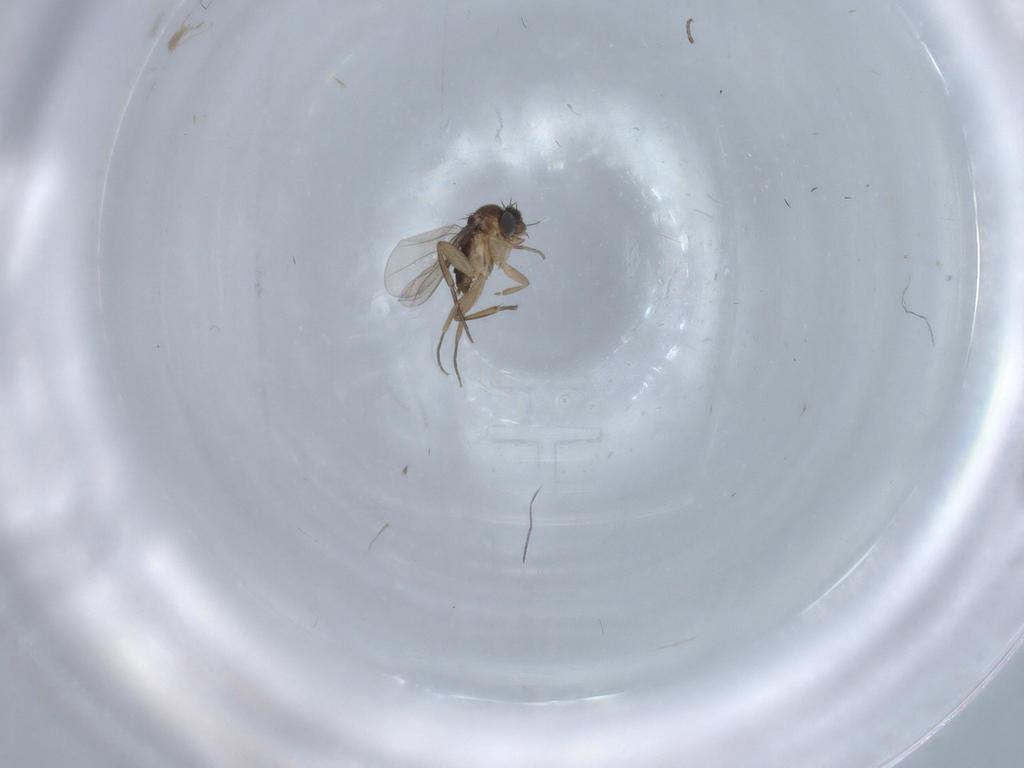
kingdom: Animalia
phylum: Arthropoda
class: Insecta
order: Diptera
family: Phoridae
